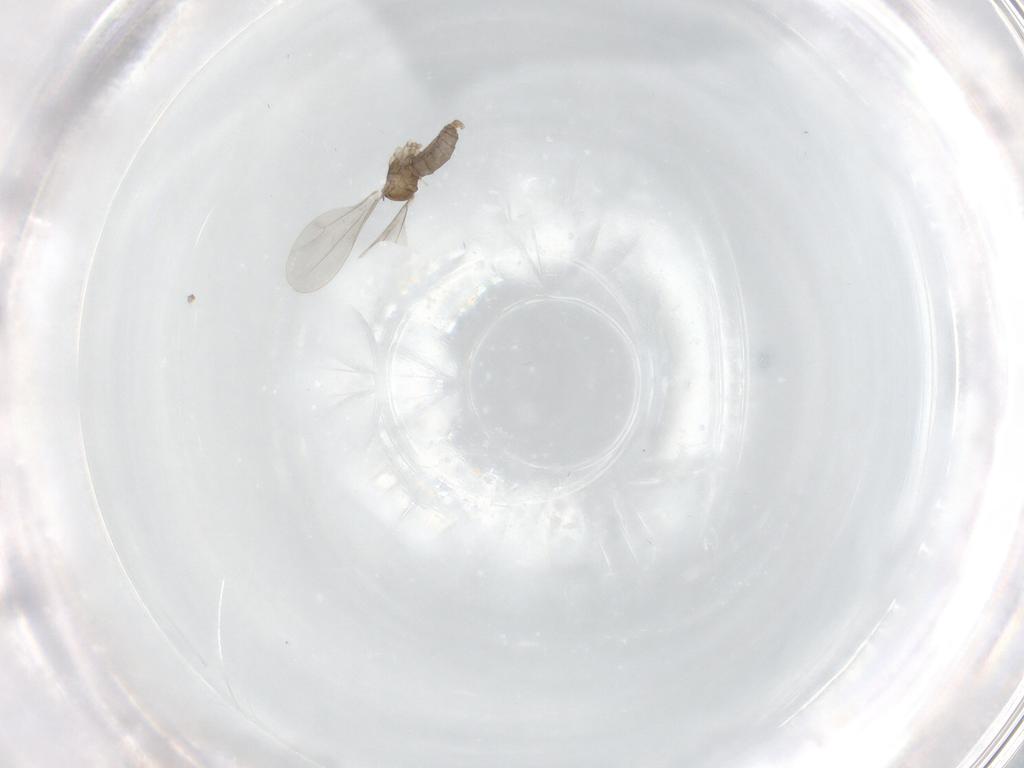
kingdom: Animalia
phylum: Arthropoda
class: Insecta
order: Diptera
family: Cecidomyiidae
